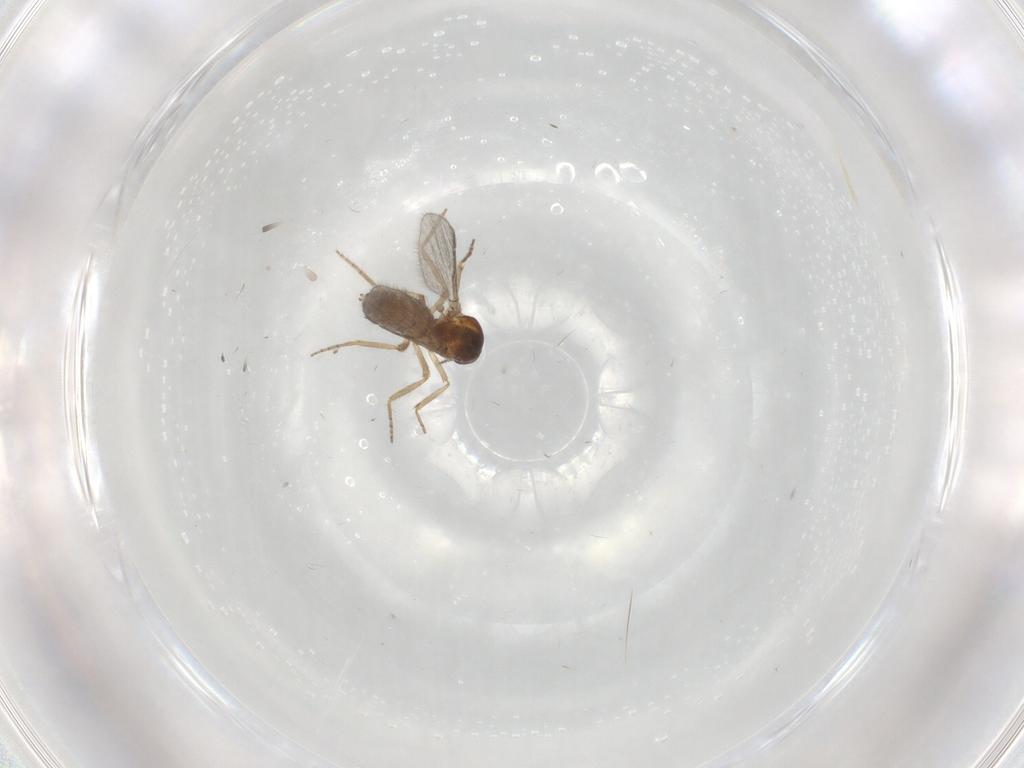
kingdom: Animalia
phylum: Arthropoda
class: Insecta
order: Diptera
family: Ceratopogonidae
